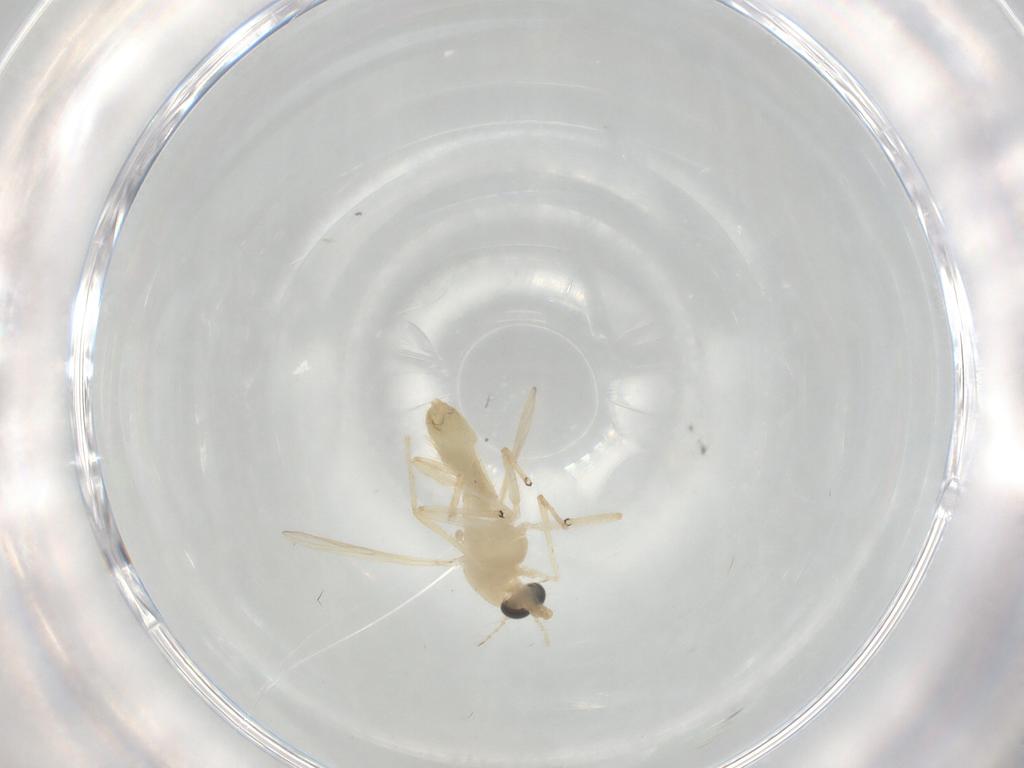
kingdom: Animalia
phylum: Arthropoda
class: Insecta
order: Diptera
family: Chironomidae
